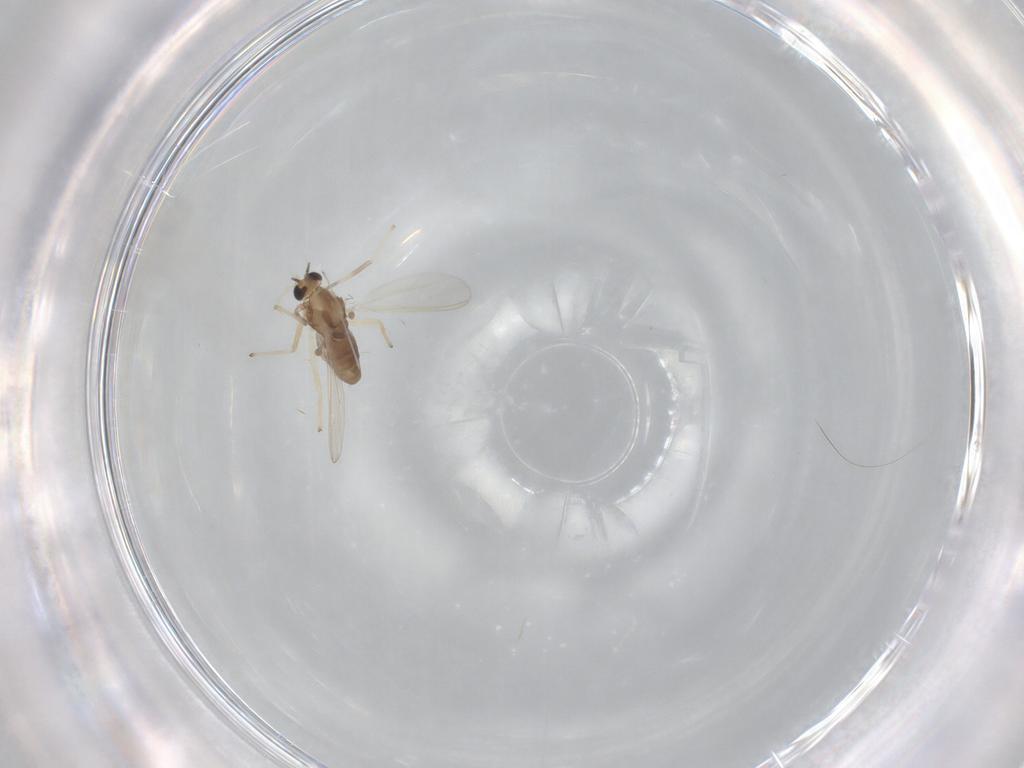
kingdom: Animalia
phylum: Arthropoda
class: Insecta
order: Diptera
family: Chironomidae
